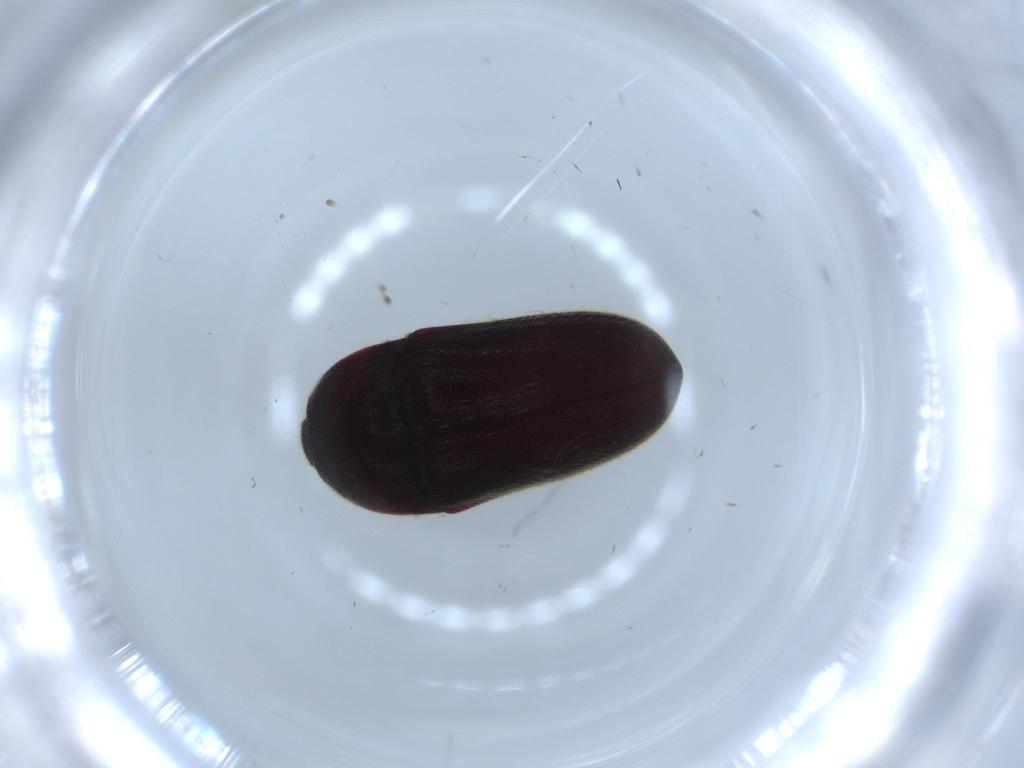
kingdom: Animalia
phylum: Arthropoda
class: Insecta
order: Coleoptera
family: Throscidae
